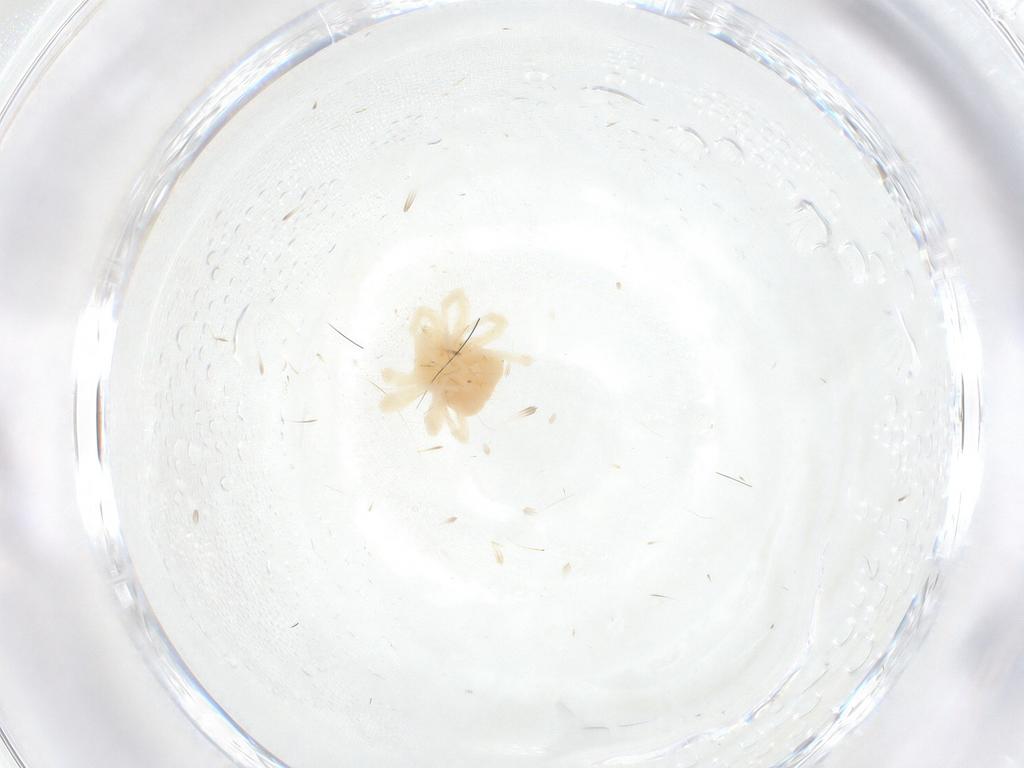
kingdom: Animalia
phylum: Arthropoda
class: Arachnida
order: Trombidiformes
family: Anystidae
